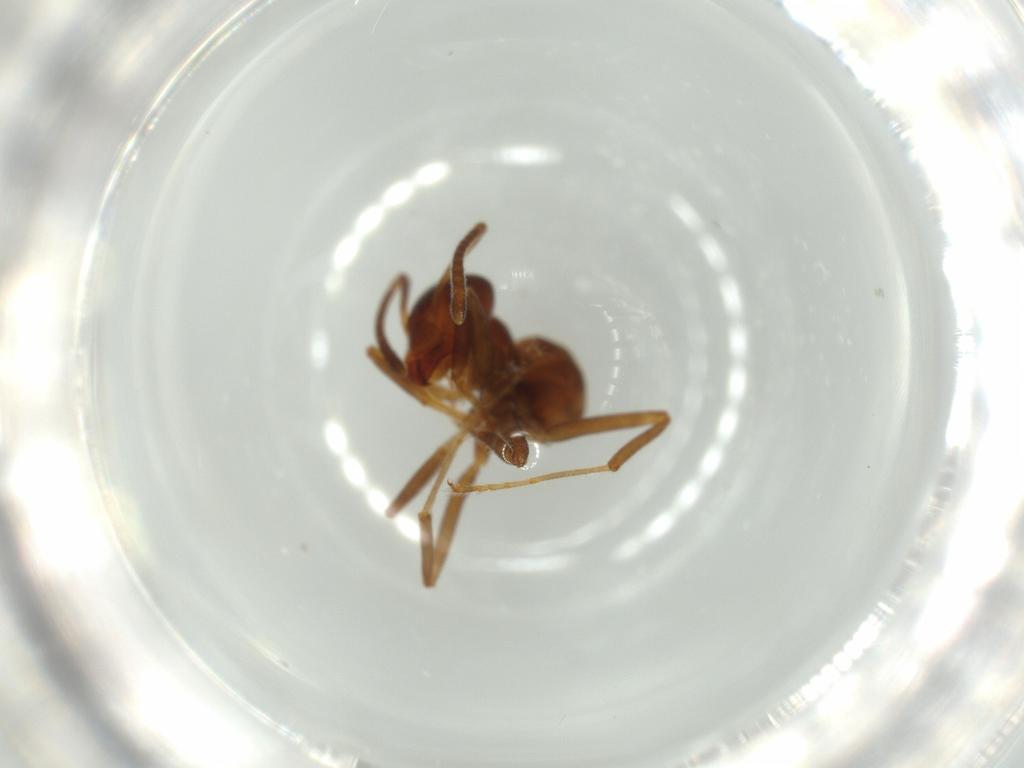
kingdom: Animalia
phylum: Arthropoda
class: Insecta
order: Hymenoptera
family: Formicidae
